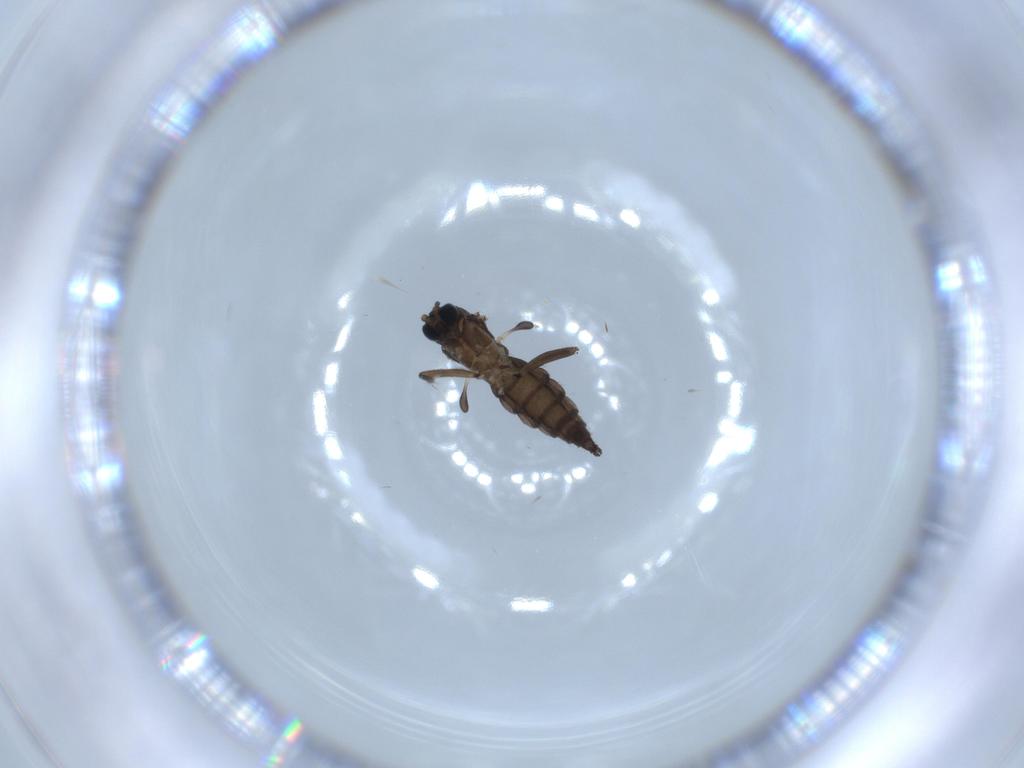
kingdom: Animalia
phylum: Arthropoda
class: Insecta
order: Diptera
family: Sciaridae
